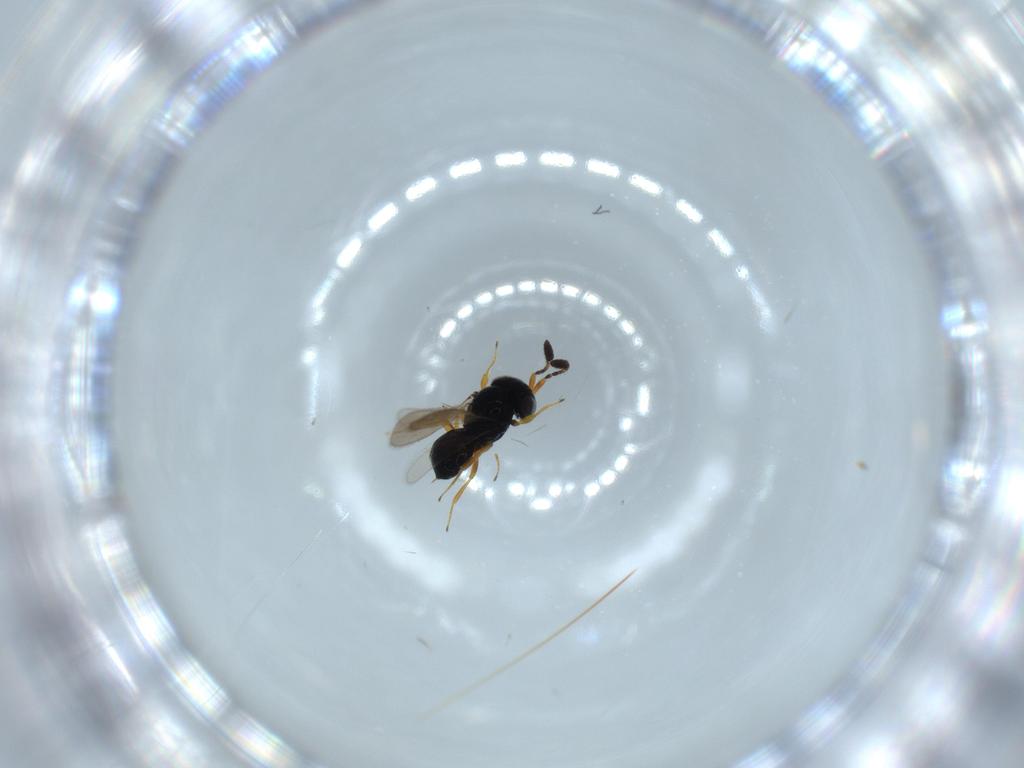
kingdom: Animalia
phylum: Arthropoda
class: Insecta
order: Hymenoptera
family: Scelionidae
